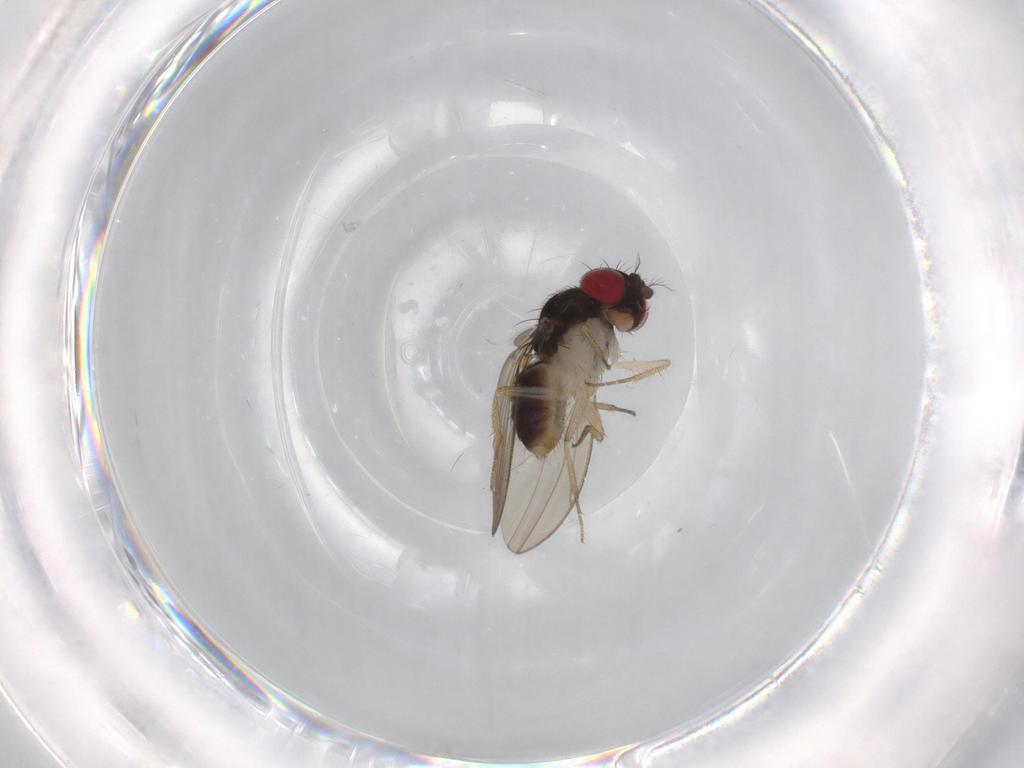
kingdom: Animalia
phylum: Arthropoda
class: Insecta
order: Diptera
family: Drosophilidae
